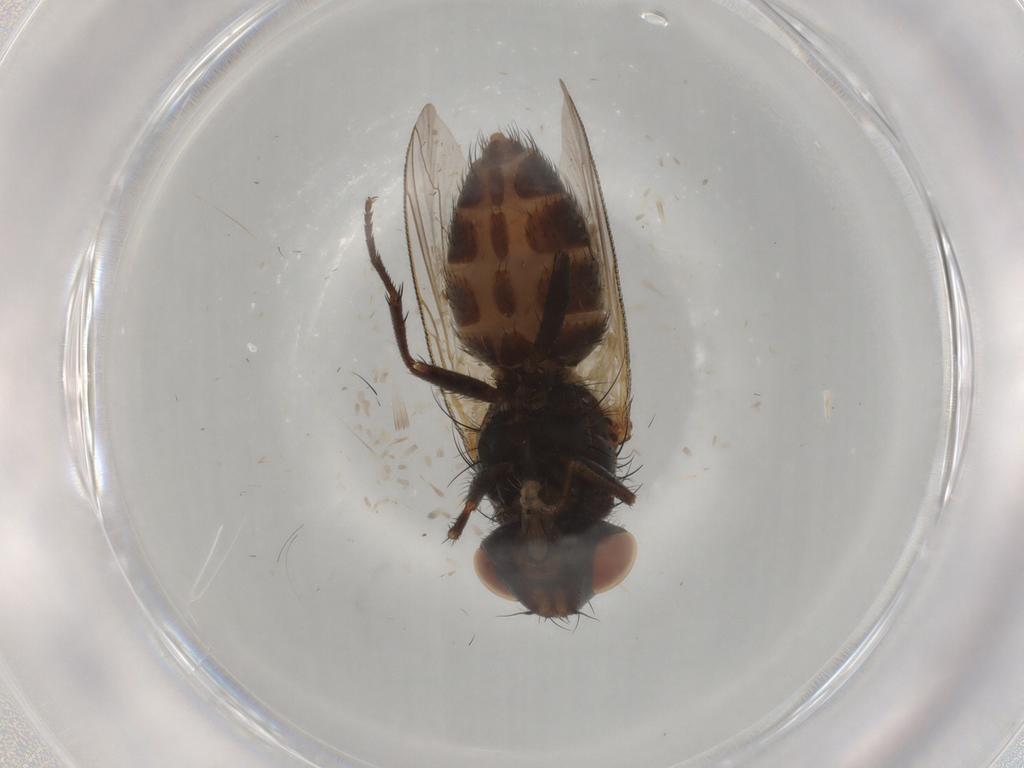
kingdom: Animalia
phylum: Arthropoda
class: Insecta
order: Diptera
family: Sarcophagidae
